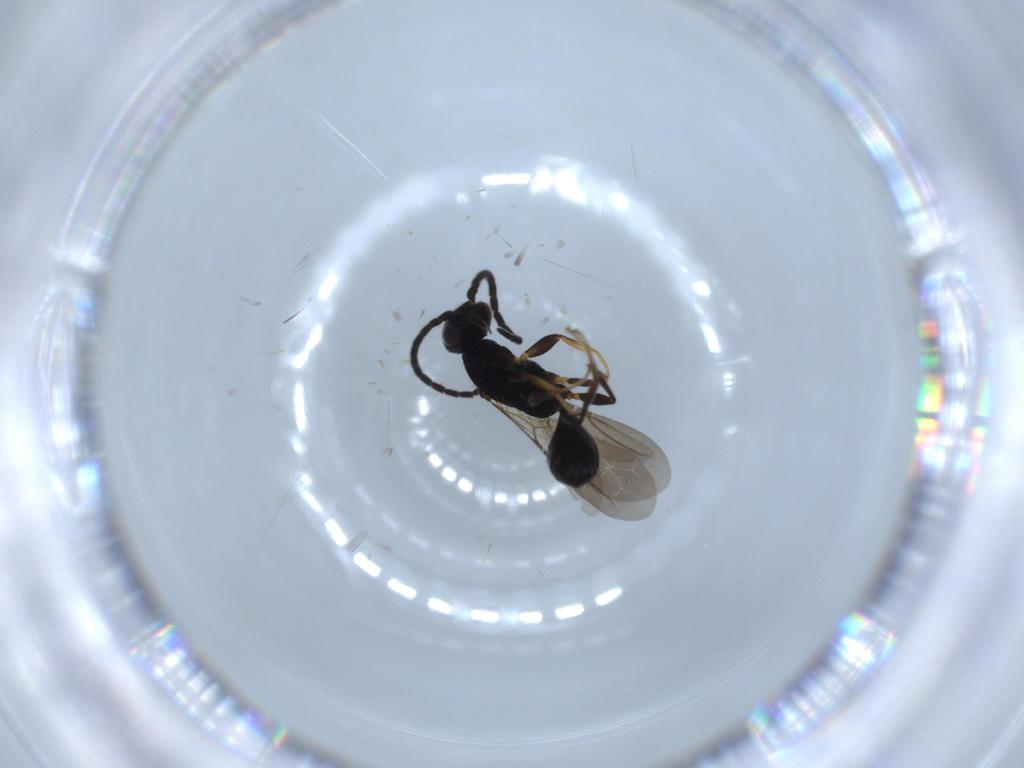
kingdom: Animalia
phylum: Arthropoda
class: Insecta
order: Hymenoptera
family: Bethylidae
